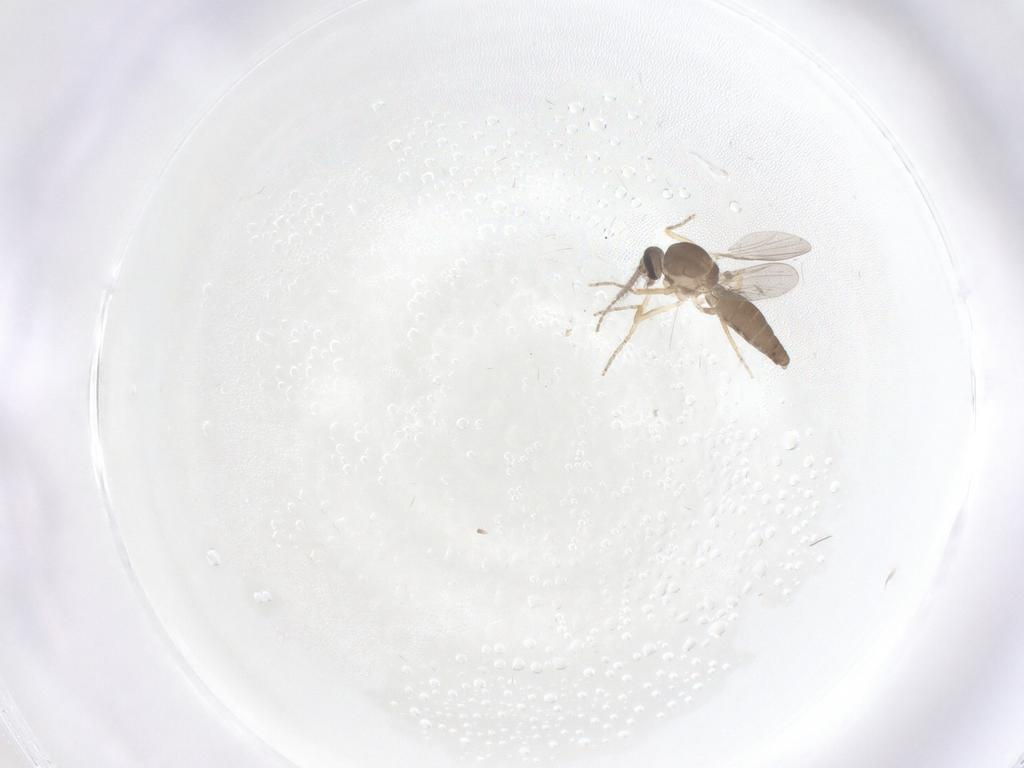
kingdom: Animalia
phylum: Arthropoda
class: Insecta
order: Diptera
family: Ceratopogonidae
